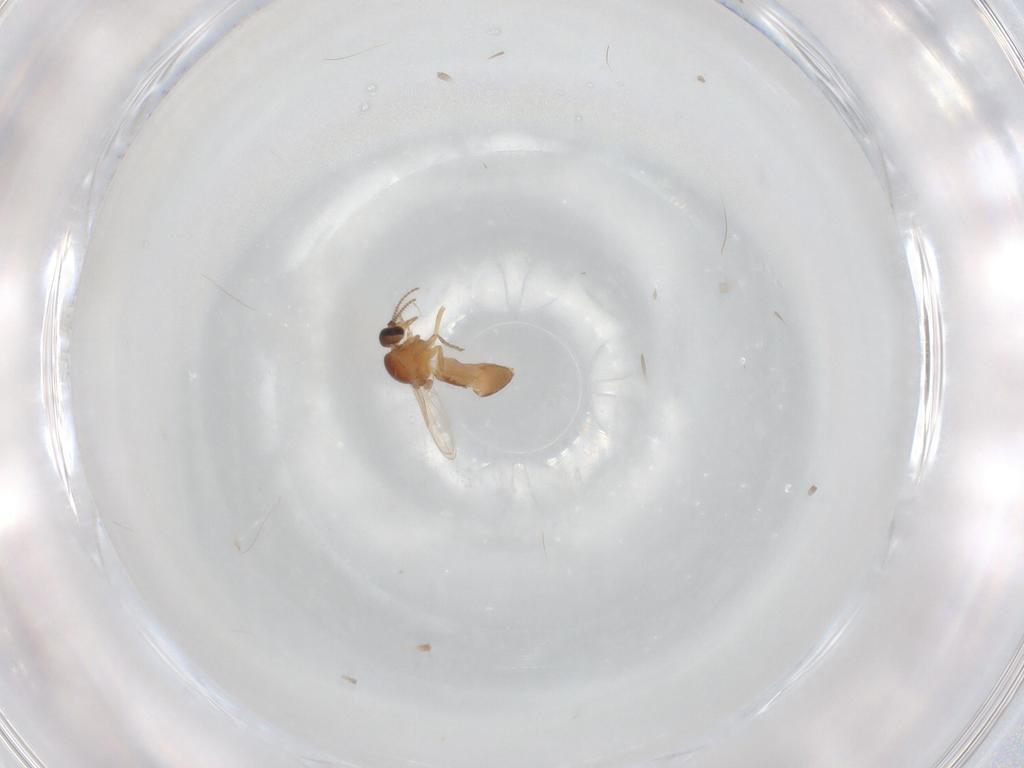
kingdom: Animalia
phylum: Arthropoda
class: Insecta
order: Diptera
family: Ceratopogonidae
